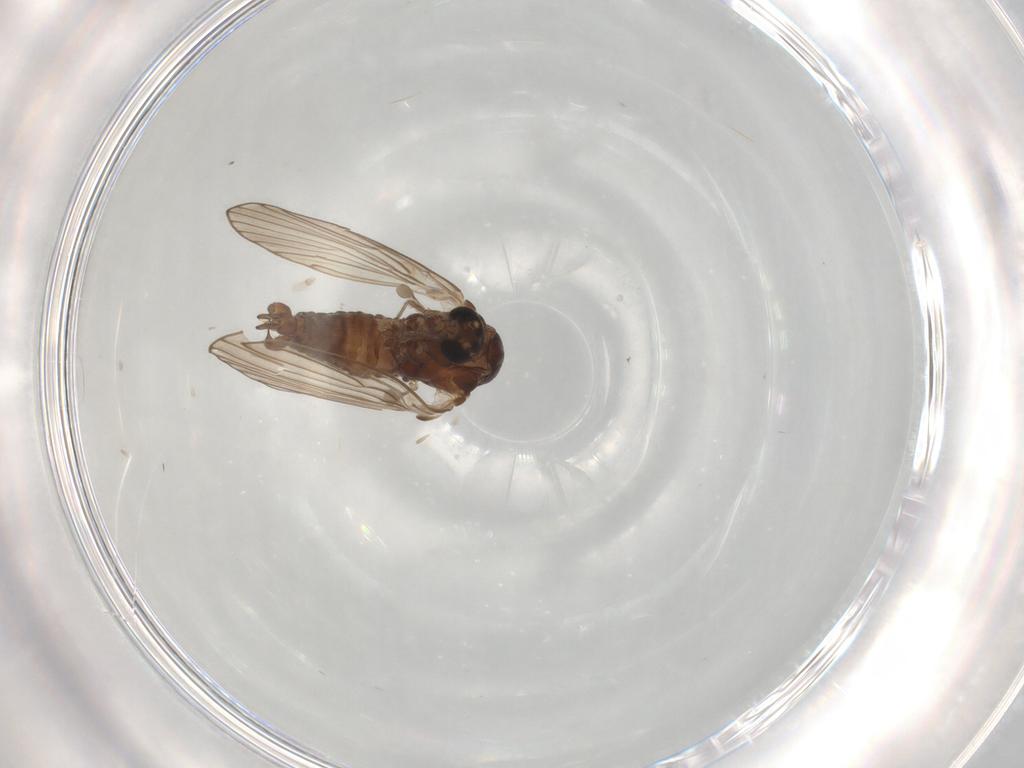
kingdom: Animalia
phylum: Arthropoda
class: Insecta
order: Diptera
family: Psychodidae
